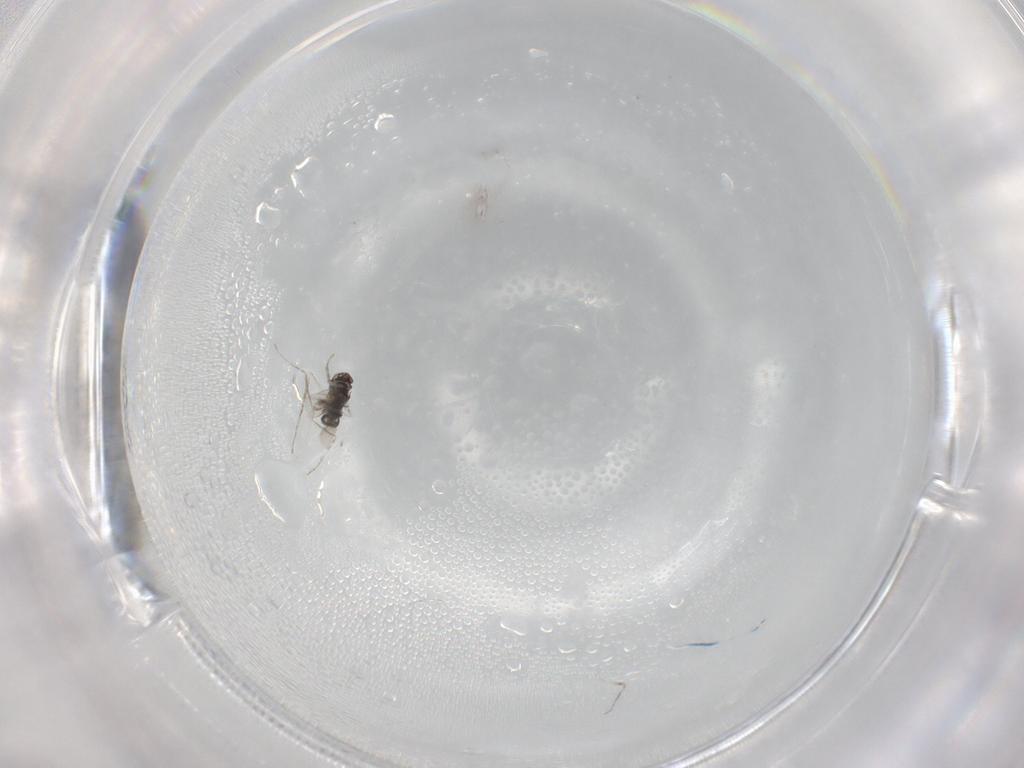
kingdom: Animalia
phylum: Arthropoda
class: Insecta
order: Diptera
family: Cecidomyiidae
